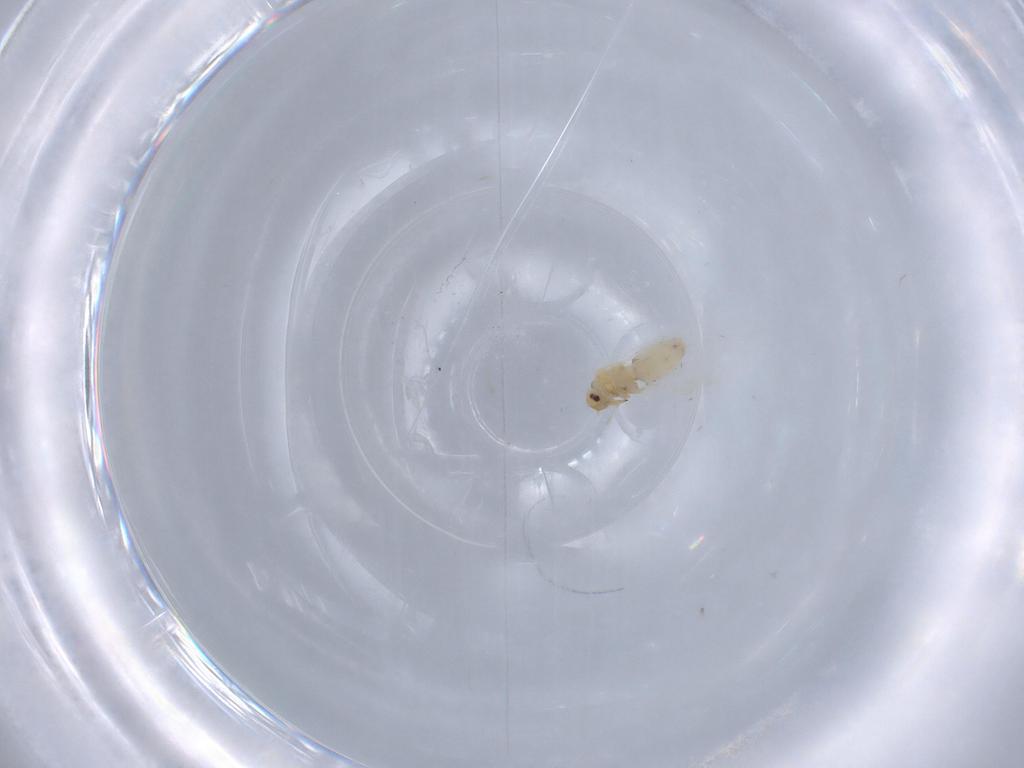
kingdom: Animalia
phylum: Arthropoda
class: Insecta
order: Hemiptera
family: Aleyrodidae
